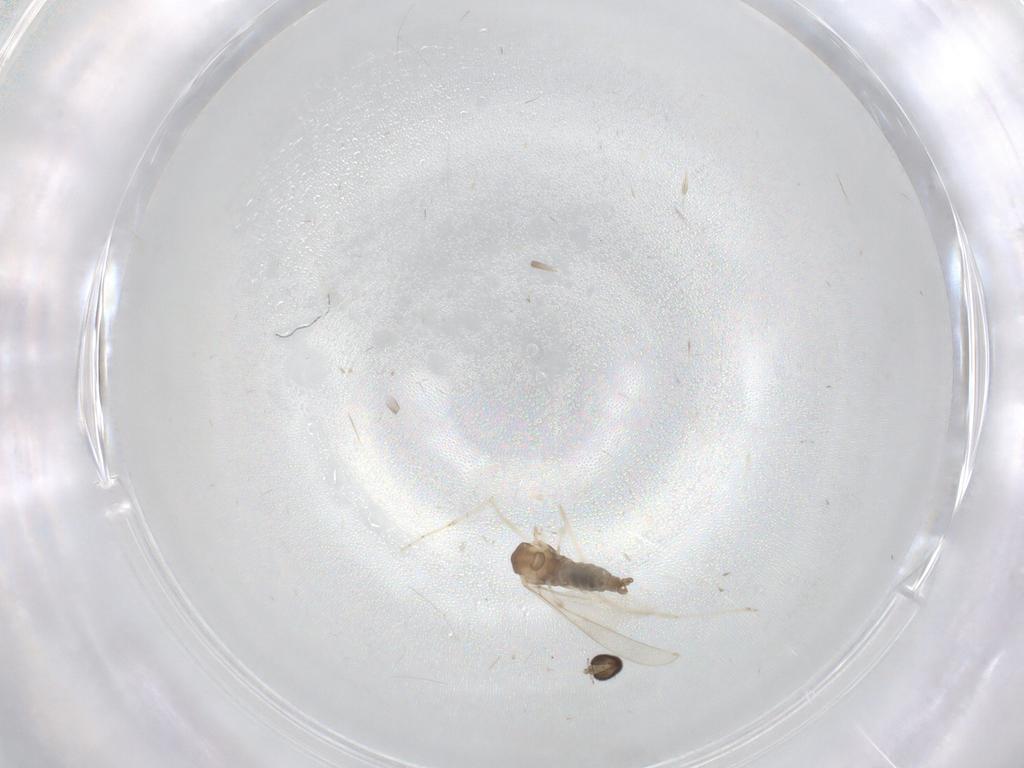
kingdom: Animalia
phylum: Arthropoda
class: Insecta
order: Diptera
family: Cecidomyiidae
